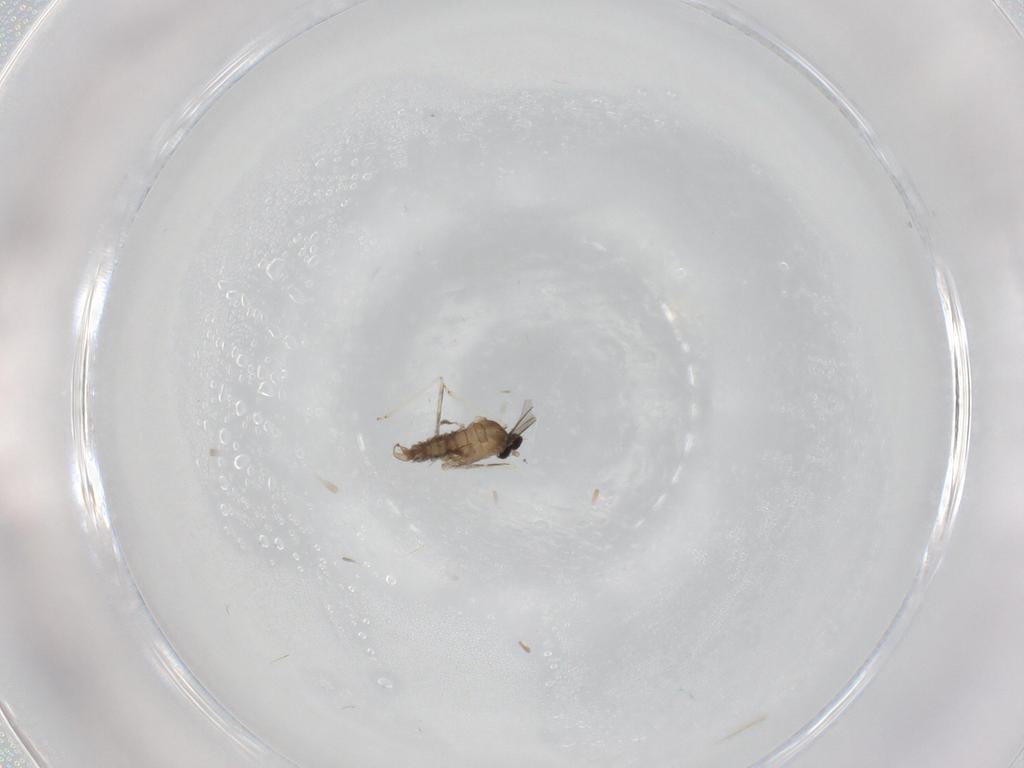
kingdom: Animalia
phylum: Arthropoda
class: Insecta
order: Diptera
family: Cecidomyiidae
